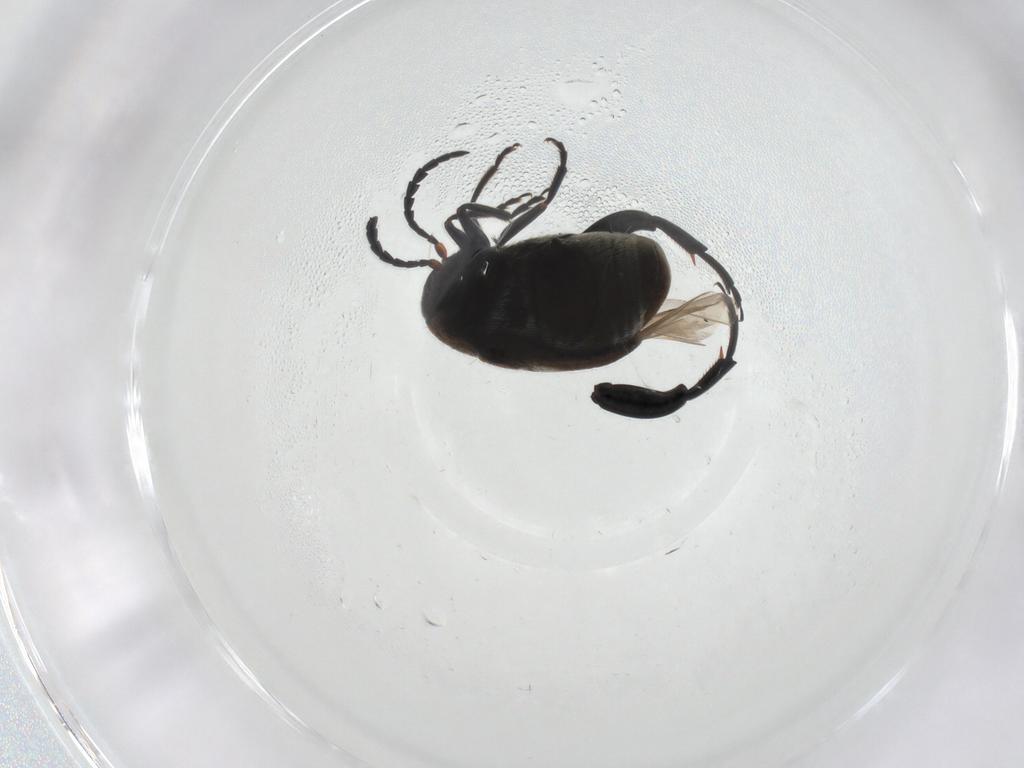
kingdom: Animalia
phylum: Arthropoda
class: Insecta
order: Coleoptera
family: Chrysomelidae
